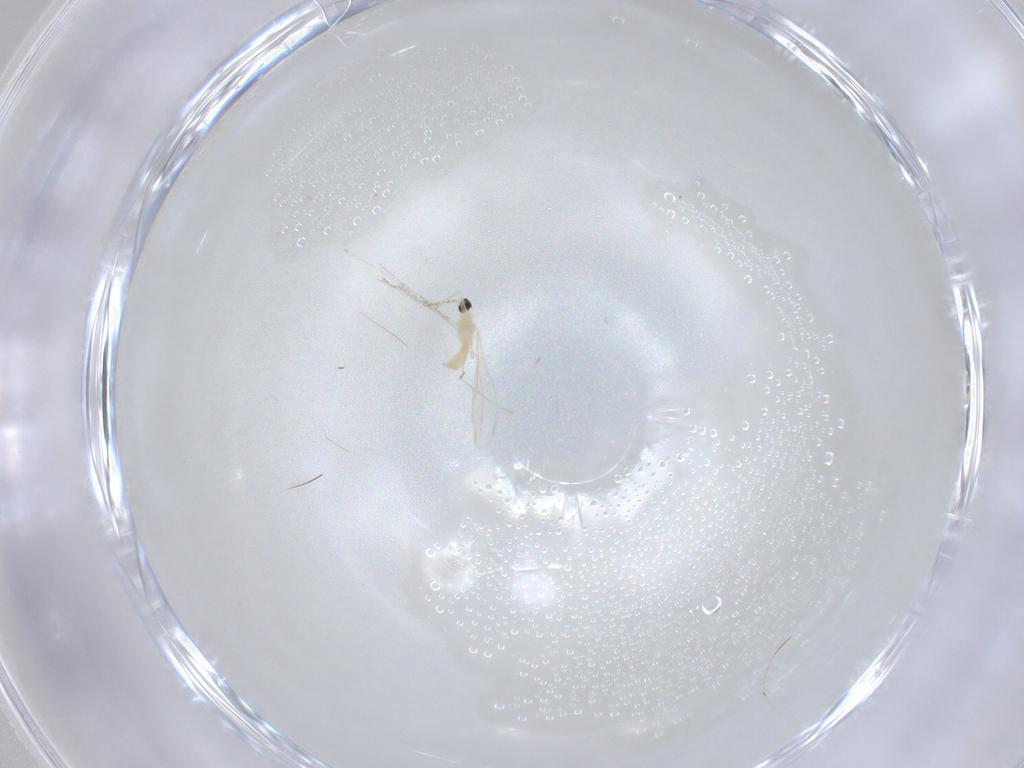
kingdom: Animalia
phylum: Arthropoda
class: Insecta
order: Diptera
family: Cecidomyiidae
